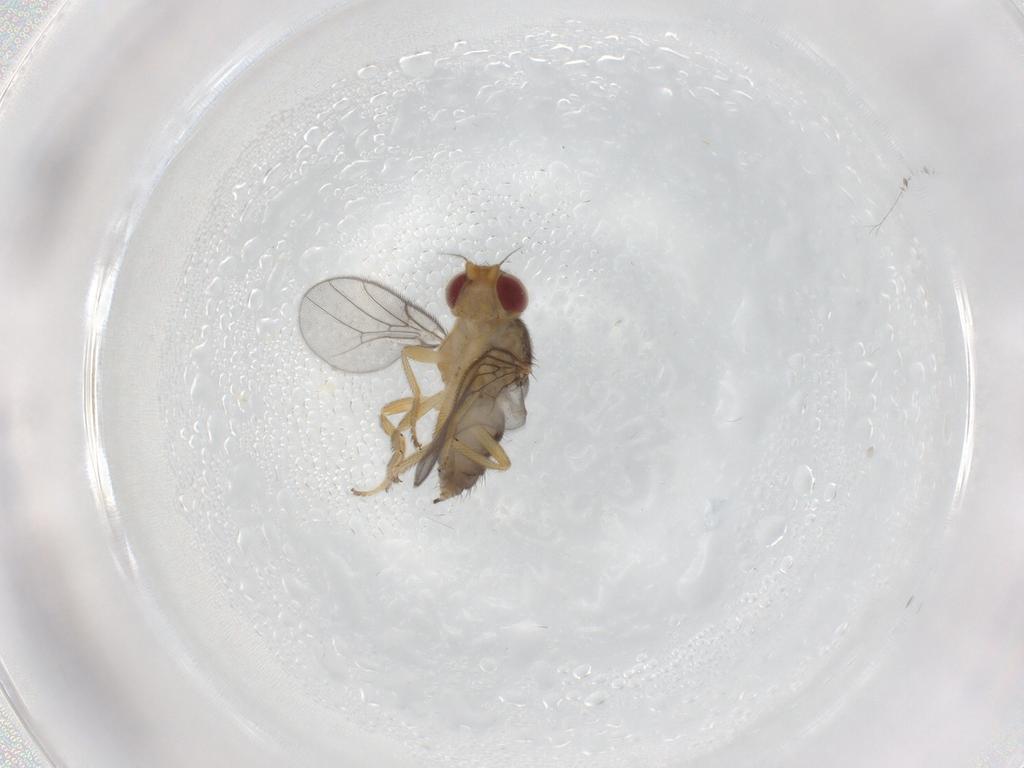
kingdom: Animalia
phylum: Arthropoda
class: Insecta
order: Diptera
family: Chloropidae
